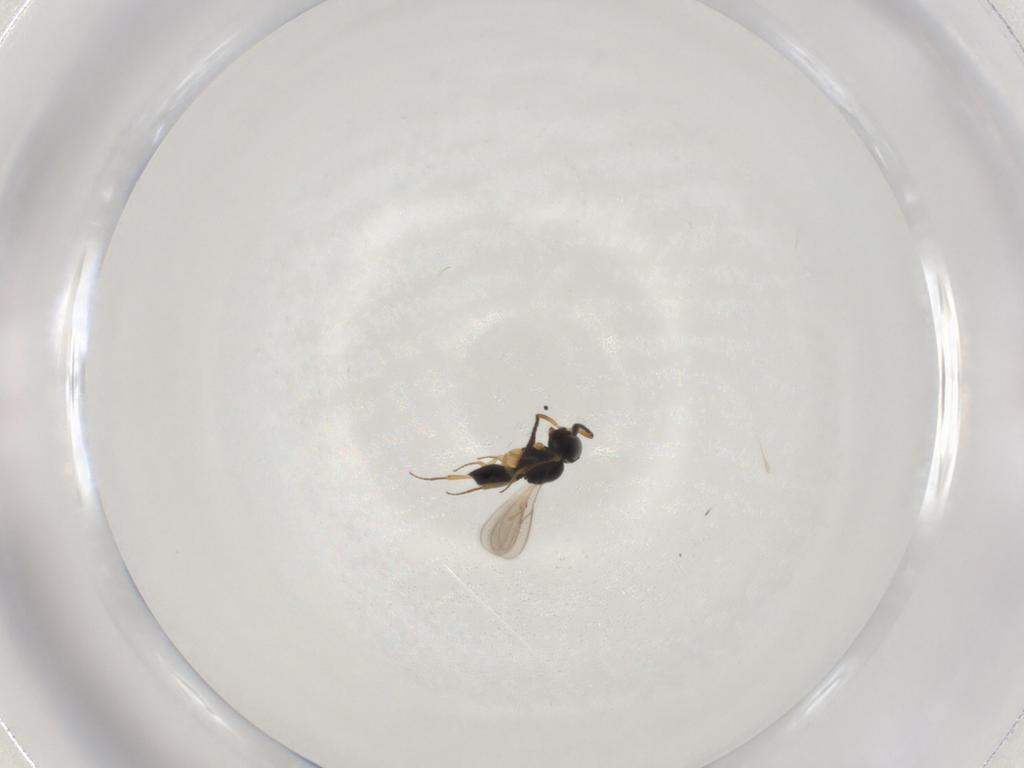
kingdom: Animalia
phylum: Arthropoda
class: Insecta
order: Hymenoptera
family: Scelionidae
